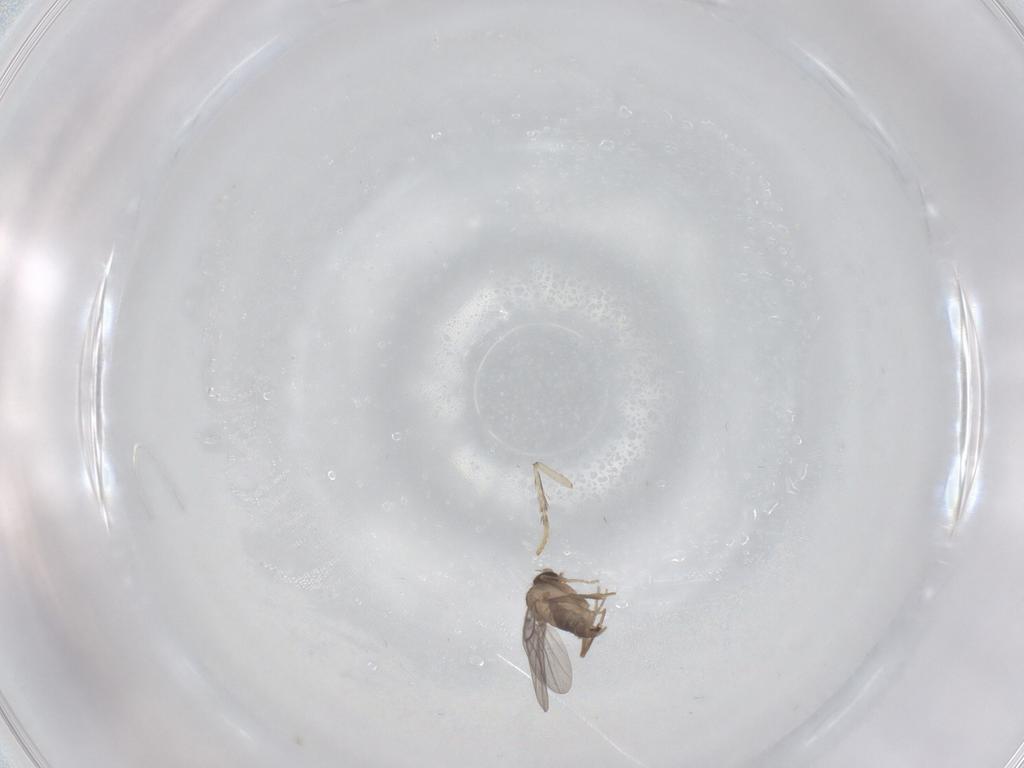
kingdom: Animalia
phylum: Arthropoda
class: Insecta
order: Diptera
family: Psychodidae
